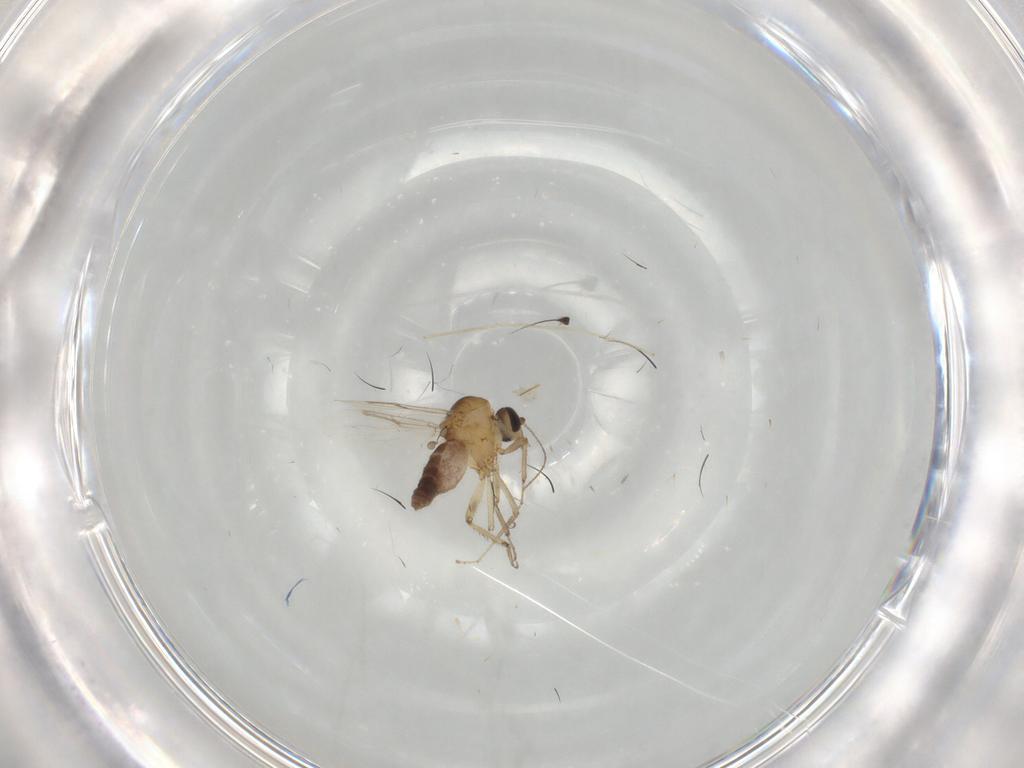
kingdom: Animalia
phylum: Arthropoda
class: Insecta
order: Diptera
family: Ceratopogonidae
